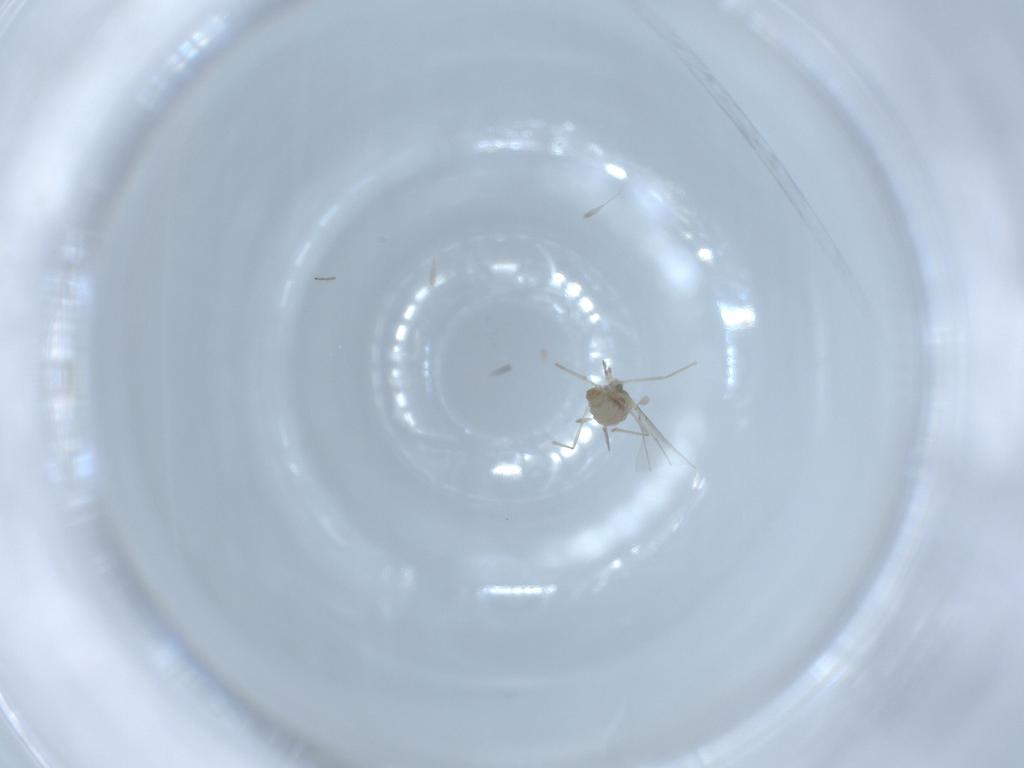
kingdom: Animalia
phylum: Arthropoda
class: Insecta
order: Diptera
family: Cecidomyiidae
